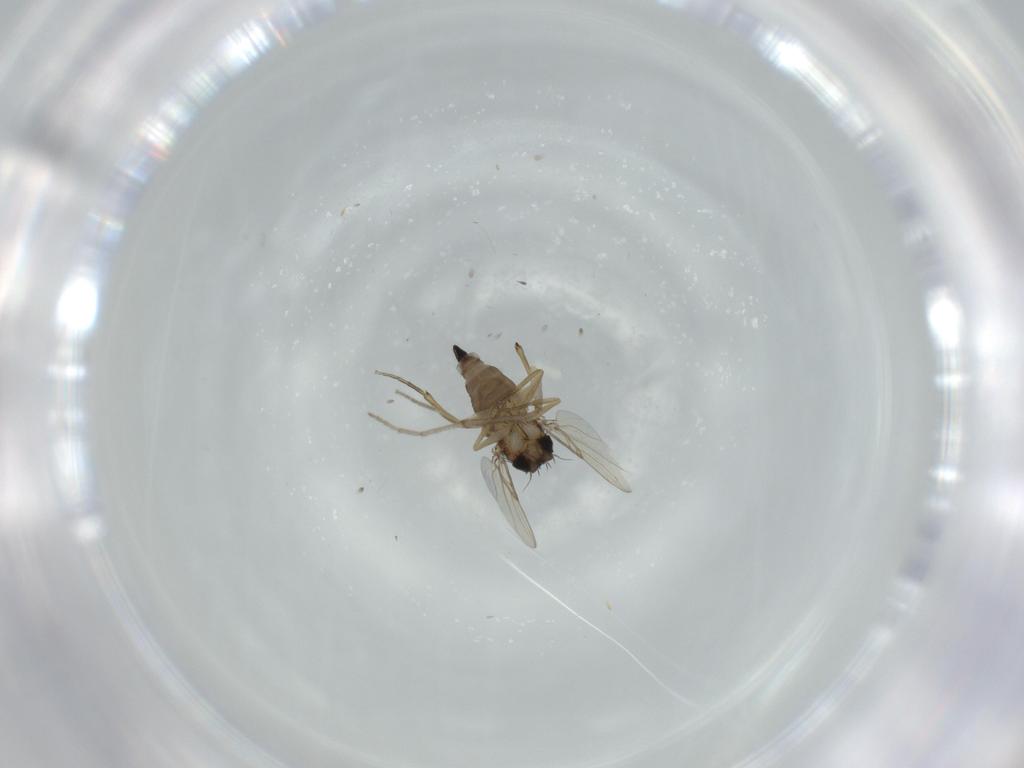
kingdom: Animalia
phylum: Arthropoda
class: Insecta
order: Diptera
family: Phoridae
